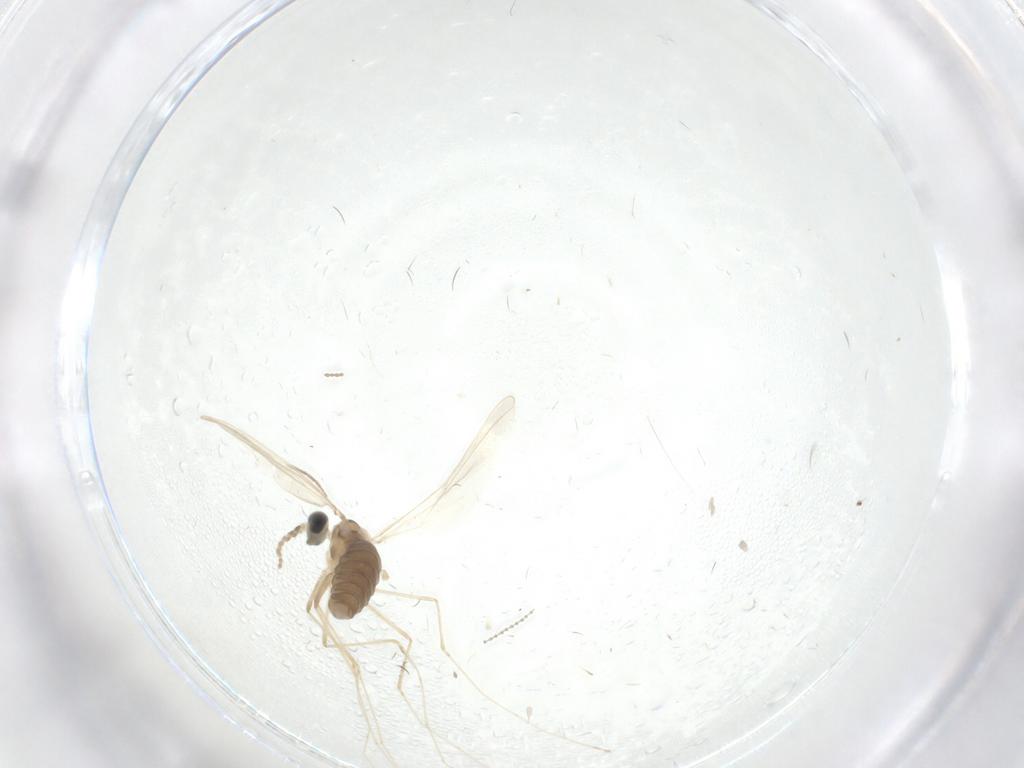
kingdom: Animalia
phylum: Arthropoda
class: Insecta
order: Diptera
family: Cecidomyiidae
